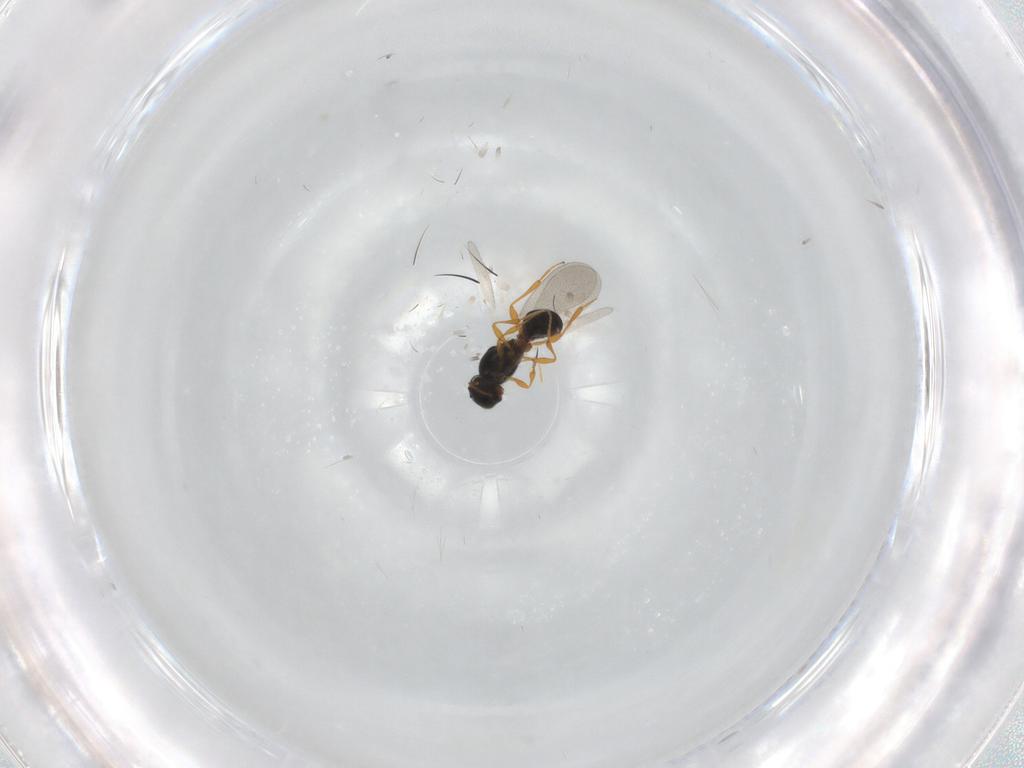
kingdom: Animalia
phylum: Arthropoda
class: Insecta
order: Hymenoptera
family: Platygastridae
